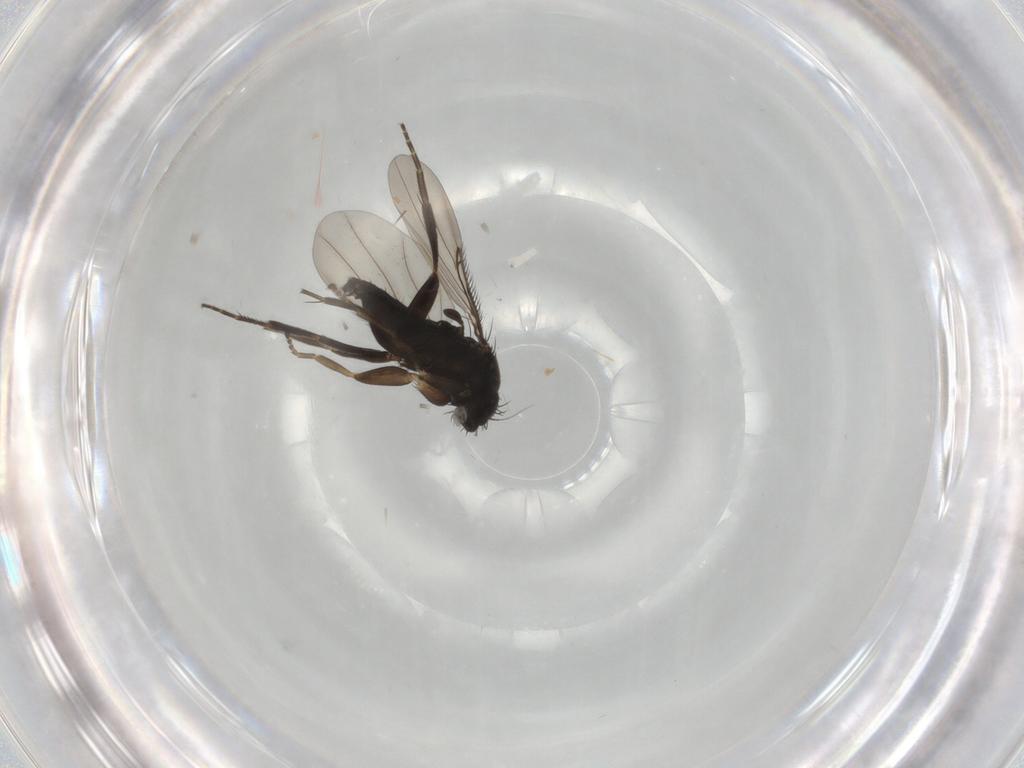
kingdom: Animalia
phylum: Arthropoda
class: Insecta
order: Diptera
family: Phoridae
